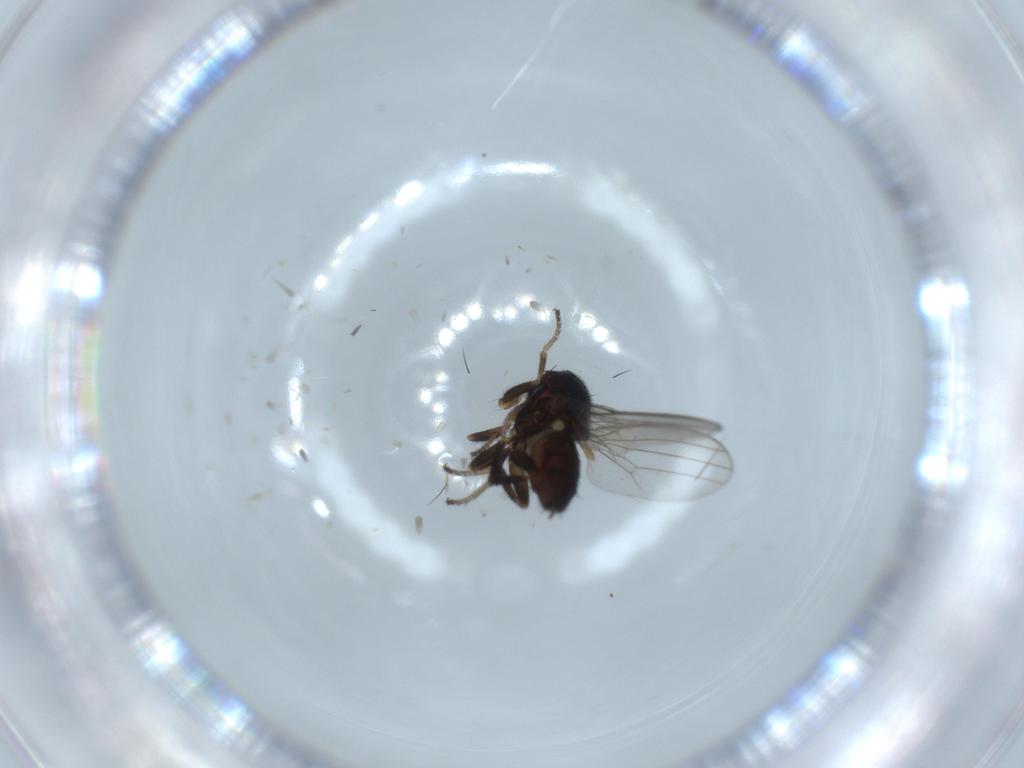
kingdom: Animalia
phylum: Arthropoda
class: Insecta
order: Diptera
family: Milichiidae
